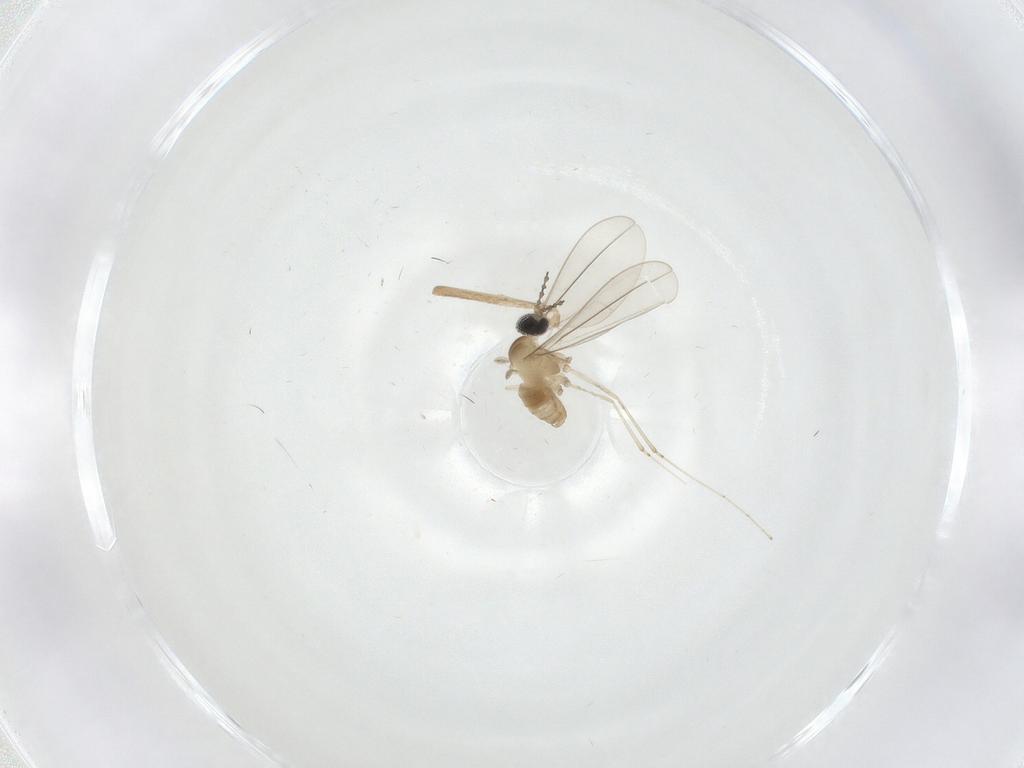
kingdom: Animalia
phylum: Arthropoda
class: Insecta
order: Diptera
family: Cecidomyiidae
